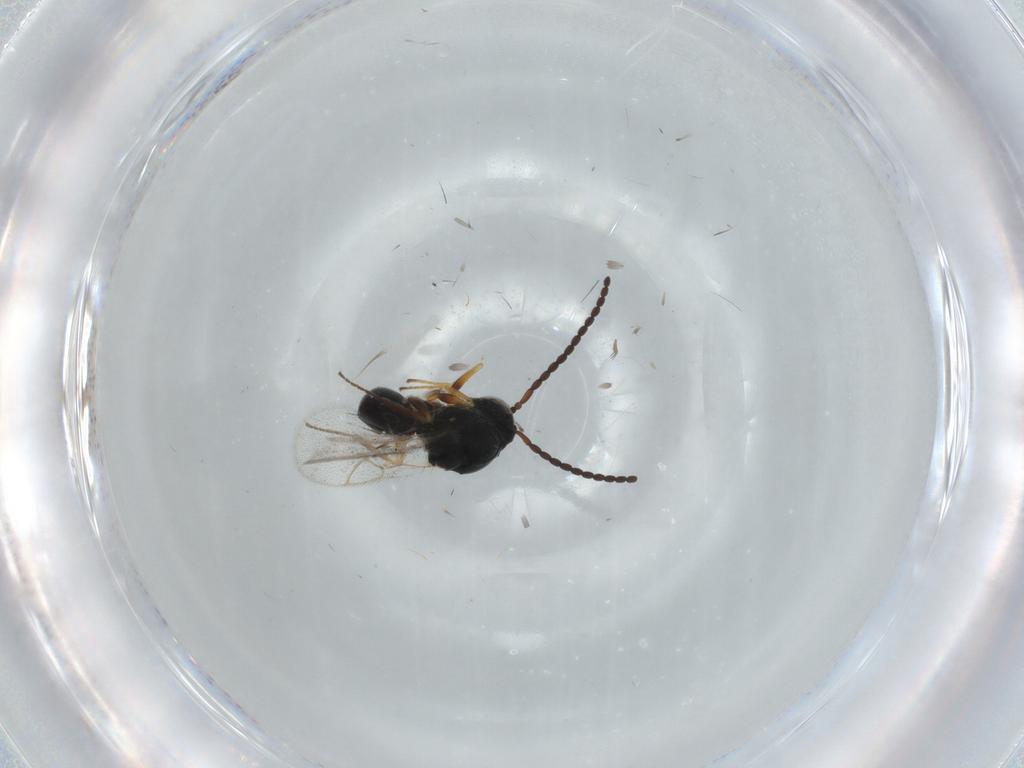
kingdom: Animalia
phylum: Arthropoda
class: Insecta
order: Hymenoptera
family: Figitidae
